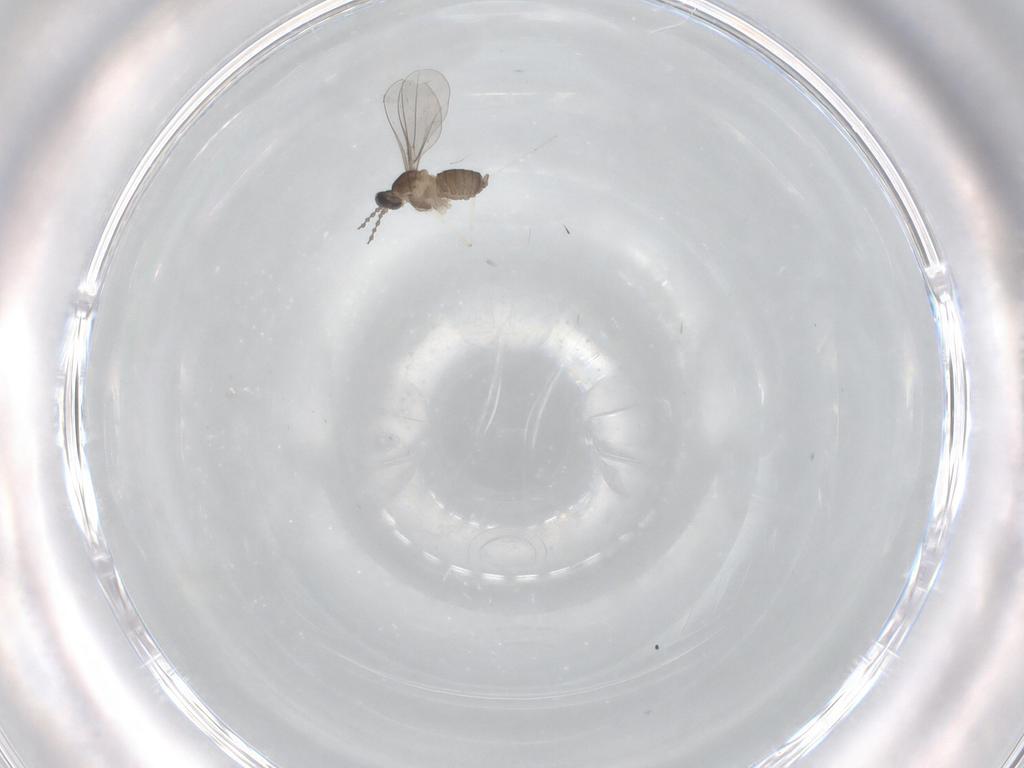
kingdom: Animalia
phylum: Arthropoda
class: Insecta
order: Diptera
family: Cecidomyiidae
